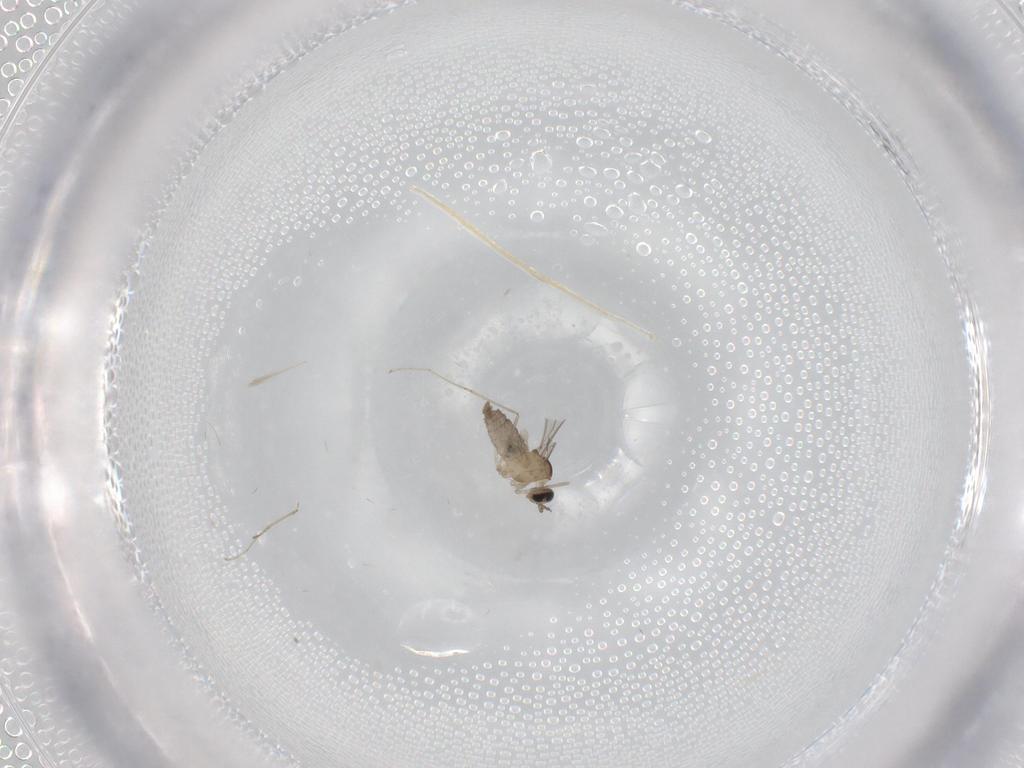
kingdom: Animalia
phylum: Arthropoda
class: Insecta
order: Diptera
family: Cecidomyiidae
